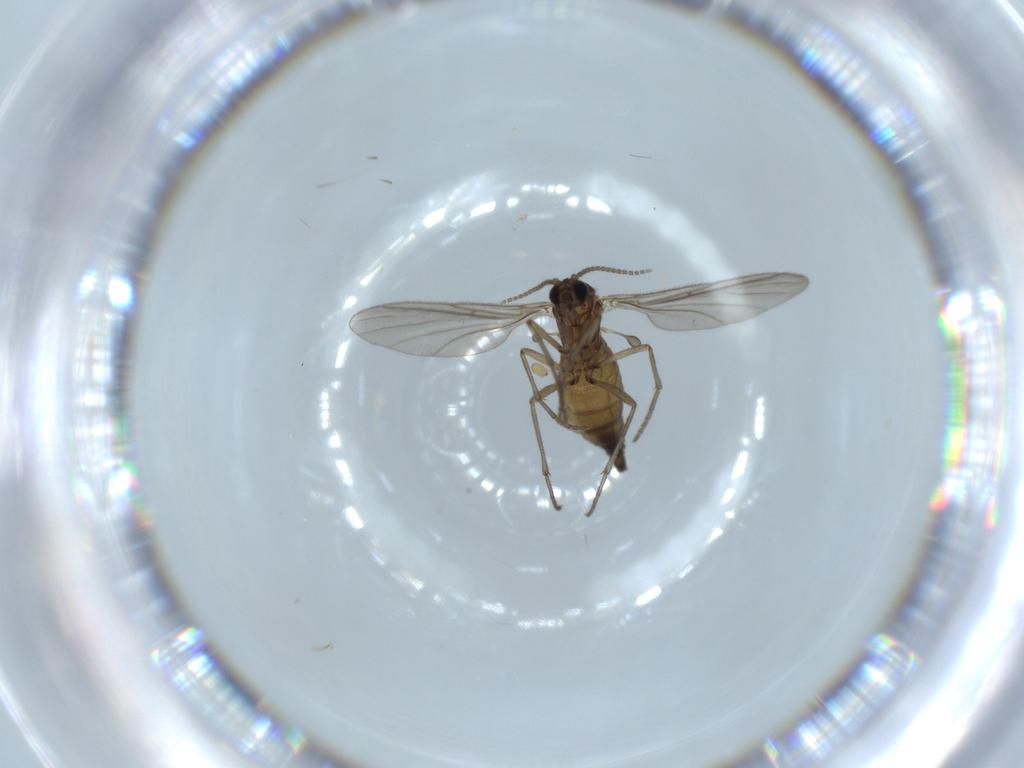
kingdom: Animalia
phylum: Arthropoda
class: Insecta
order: Diptera
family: Sciaridae
